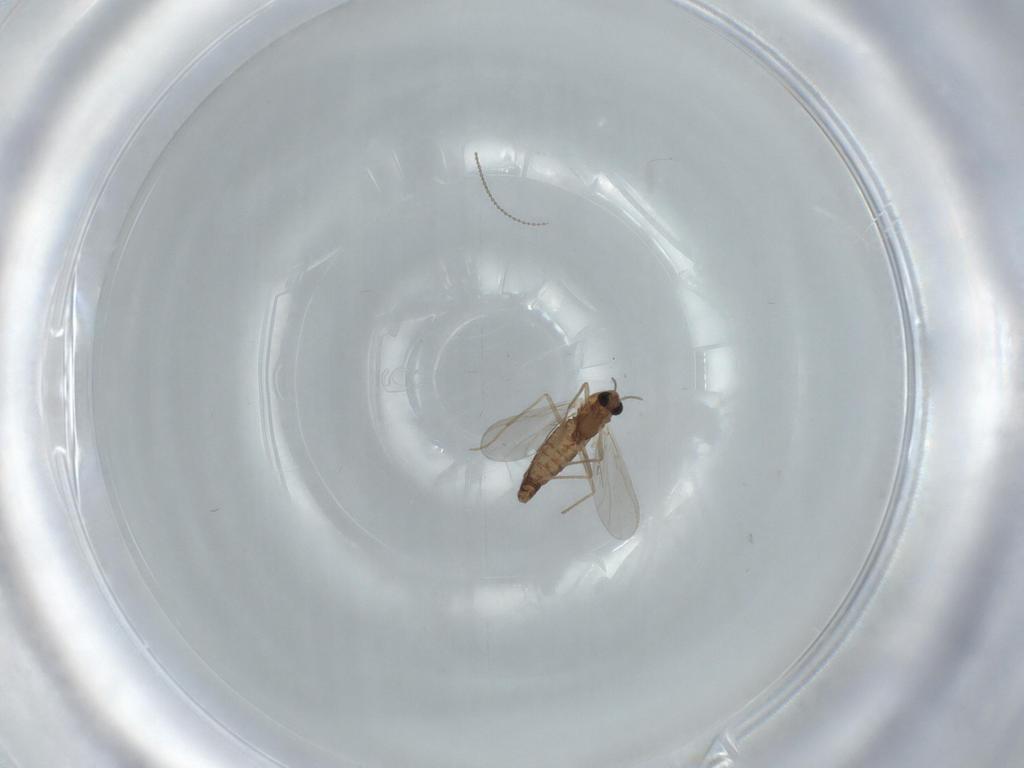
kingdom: Animalia
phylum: Arthropoda
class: Insecta
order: Diptera
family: Chironomidae
